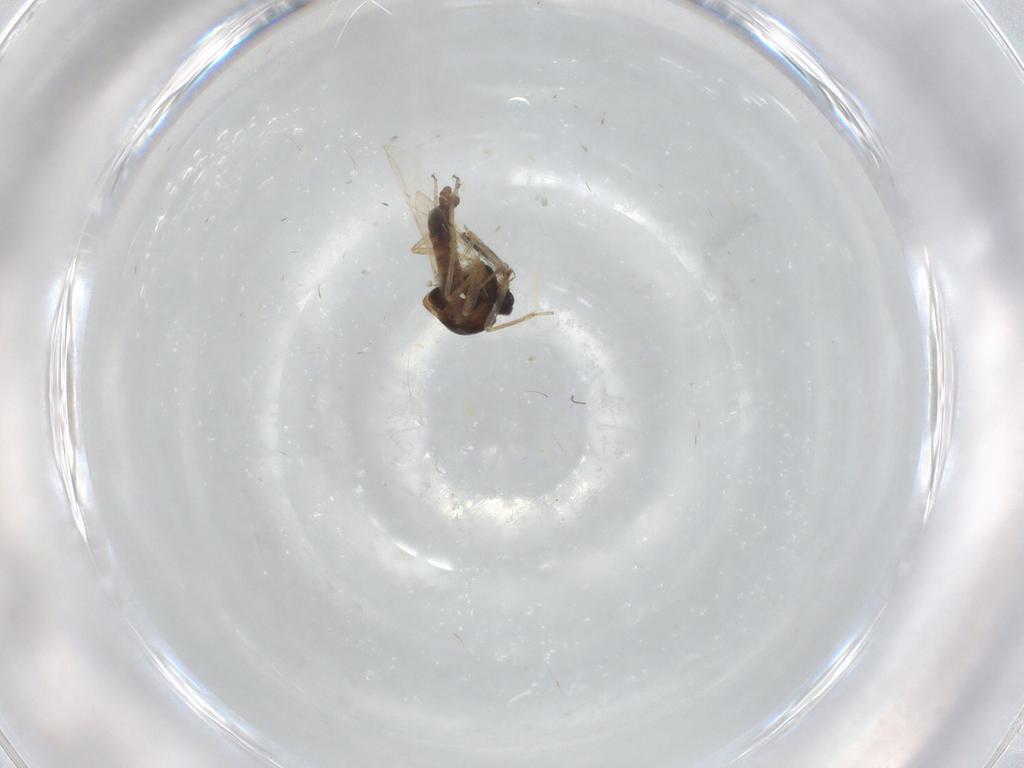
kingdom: Animalia
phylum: Arthropoda
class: Insecta
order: Diptera
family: Ceratopogonidae
